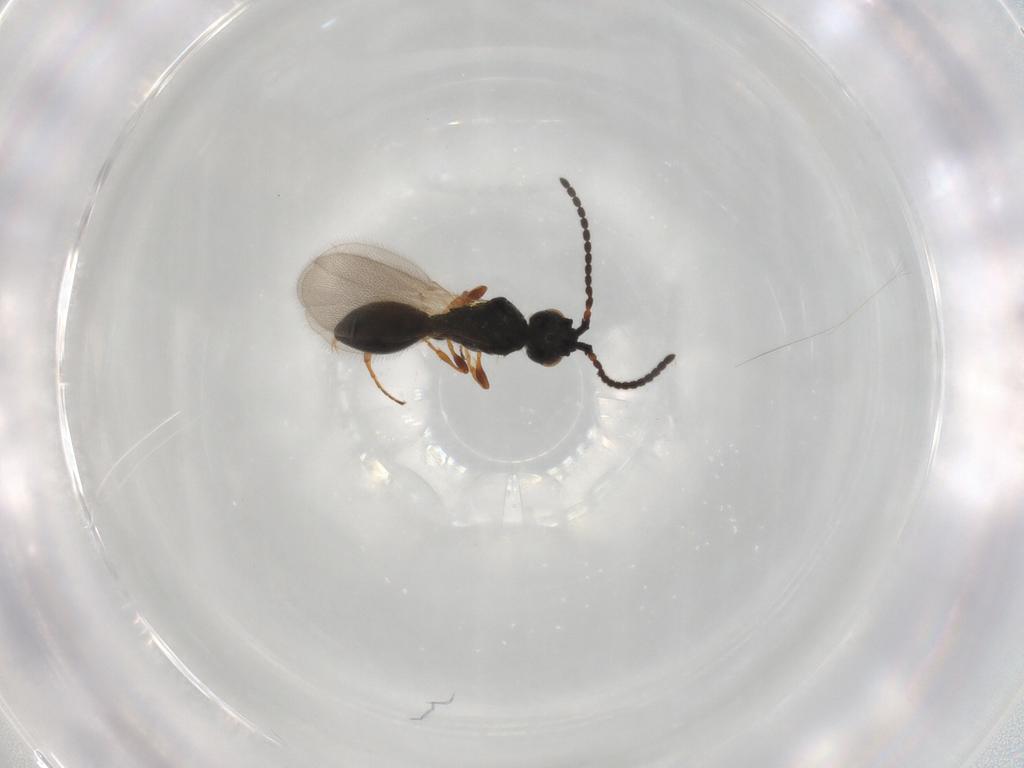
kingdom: Animalia
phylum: Arthropoda
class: Insecta
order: Hymenoptera
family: Diapriidae
